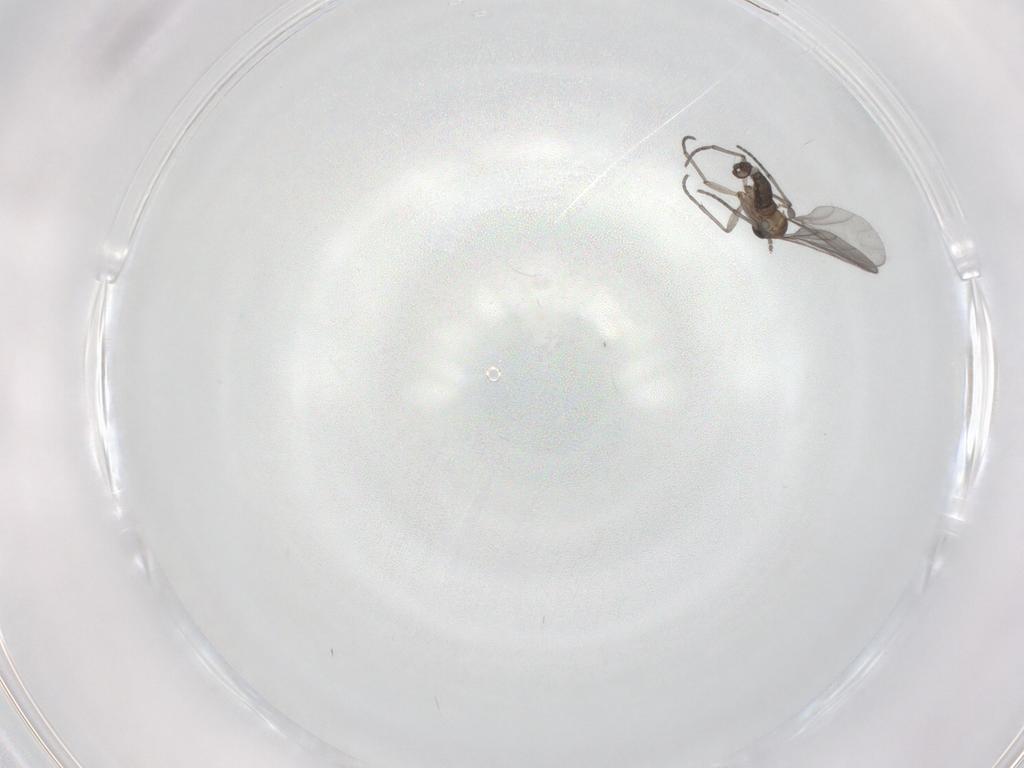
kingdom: Animalia
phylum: Arthropoda
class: Insecta
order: Diptera
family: Sciaridae
